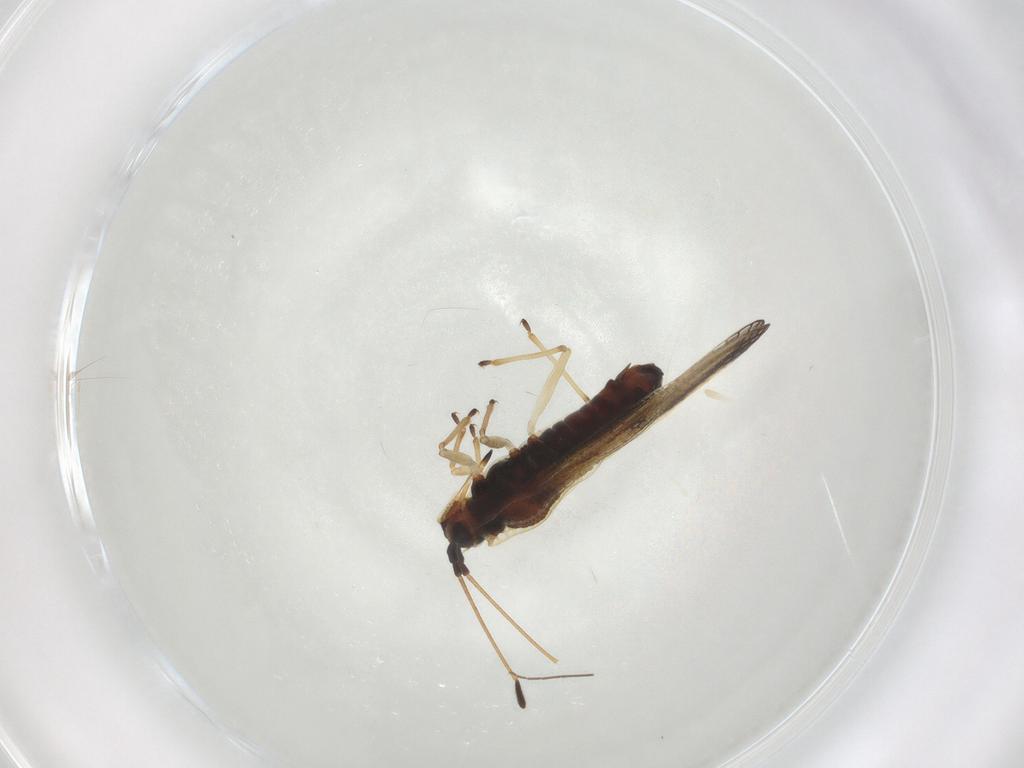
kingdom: Animalia
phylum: Arthropoda
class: Insecta
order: Hemiptera
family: Tingidae
